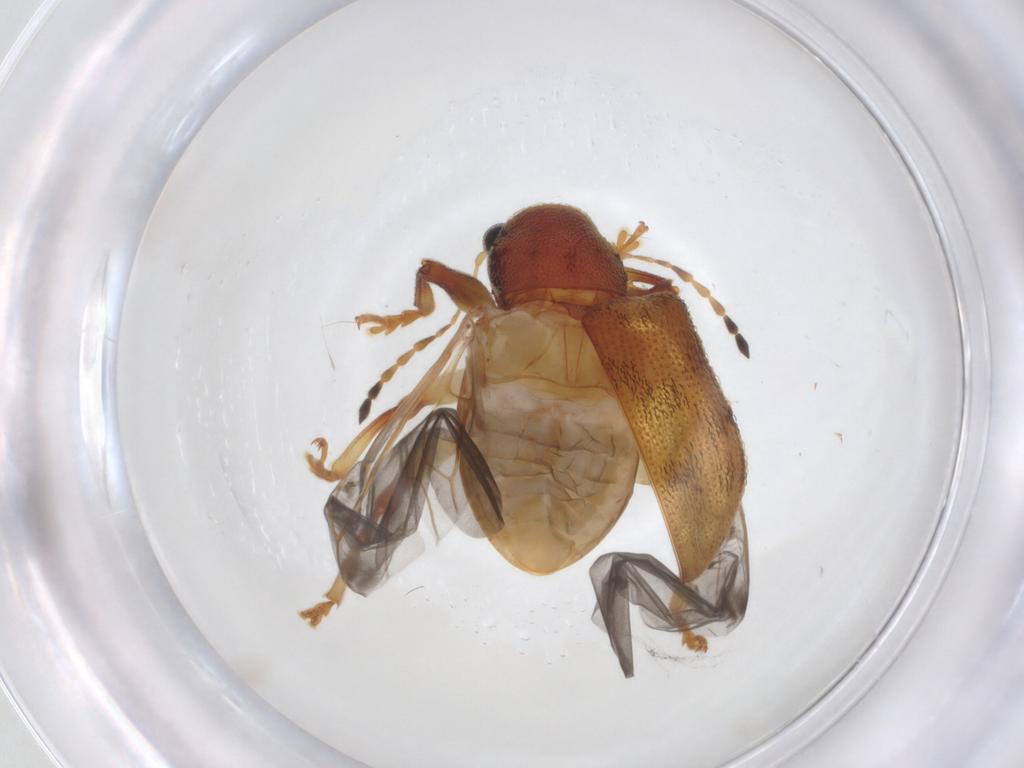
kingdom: Animalia
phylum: Arthropoda
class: Insecta
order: Coleoptera
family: Chrysomelidae
